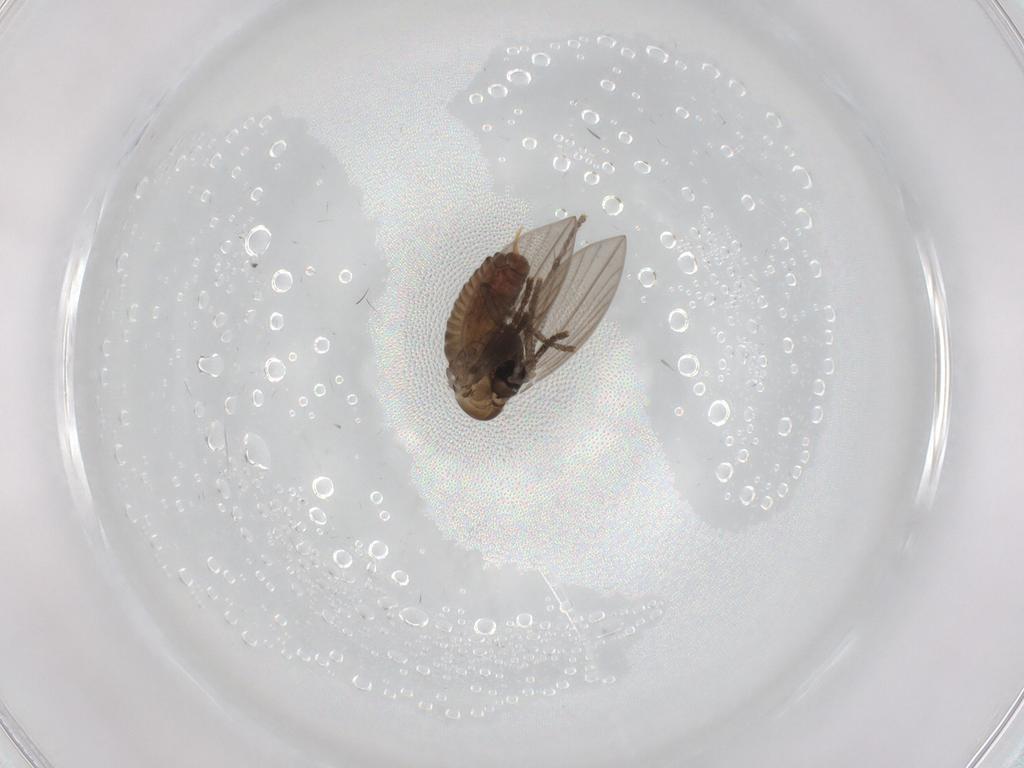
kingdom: Animalia
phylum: Arthropoda
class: Insecta
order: Diptera
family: Psychodidae
